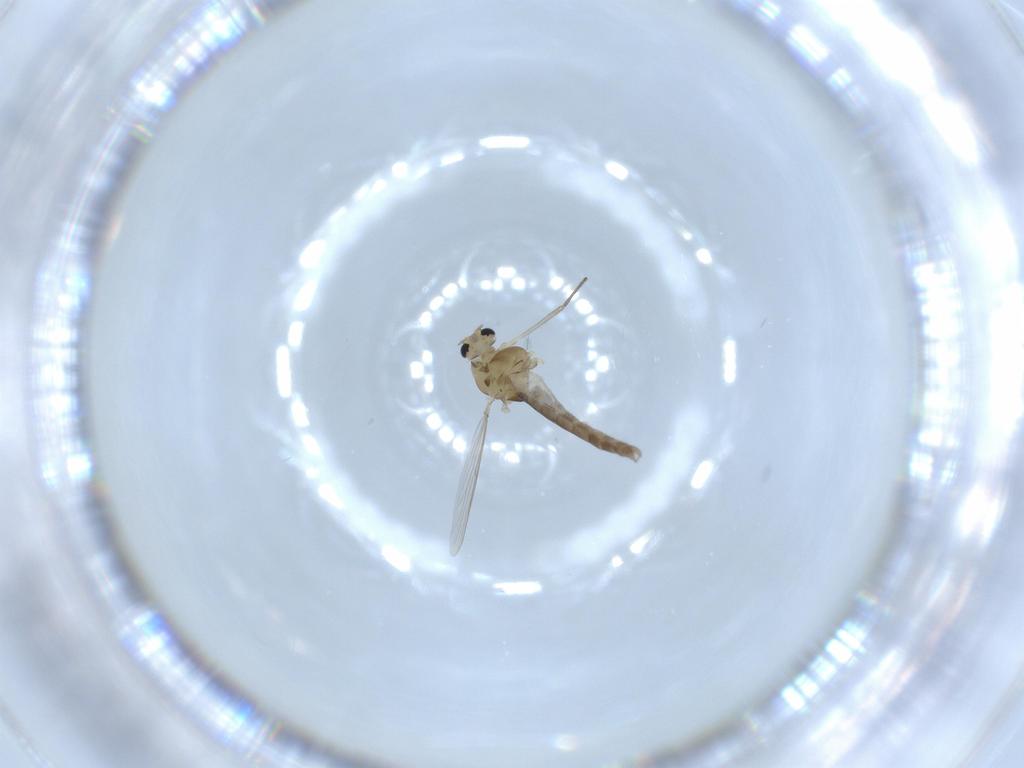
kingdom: Animalia
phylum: Arthropoda
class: Insecta
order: Diptera
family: Chironomidae
